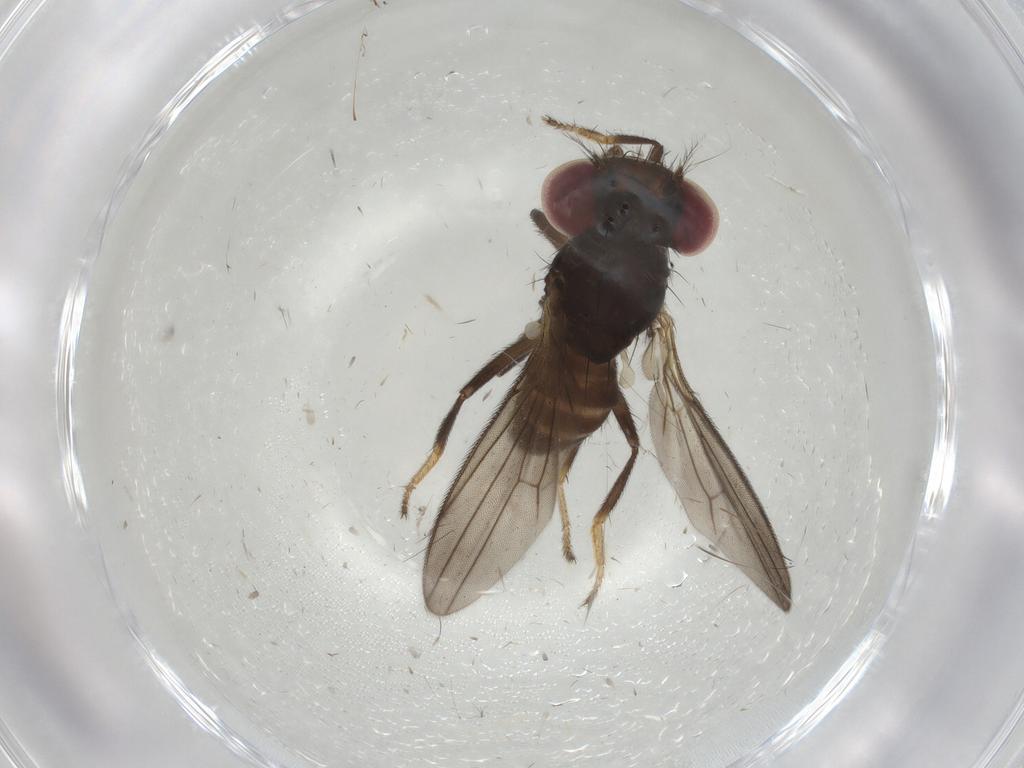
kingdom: Animalia
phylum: Arthropoda
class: Insecta
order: Diptera
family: Drosophilidae
